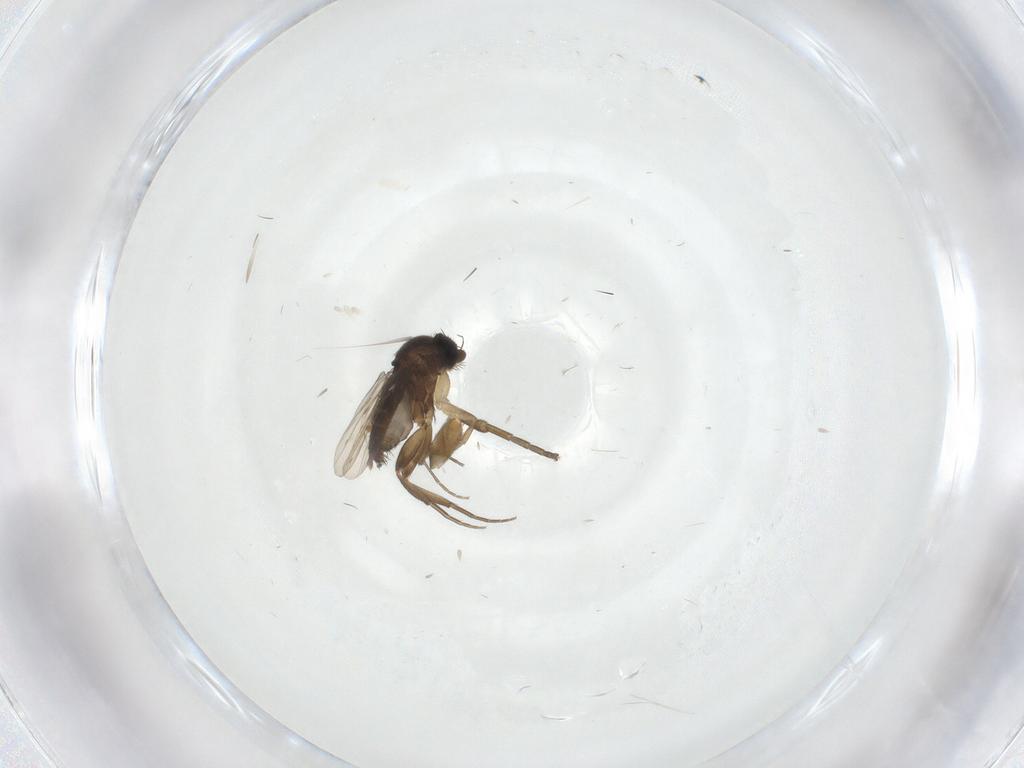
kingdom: Animalia
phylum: Arthropoda
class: Insecta
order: Diptera
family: Phoridae
